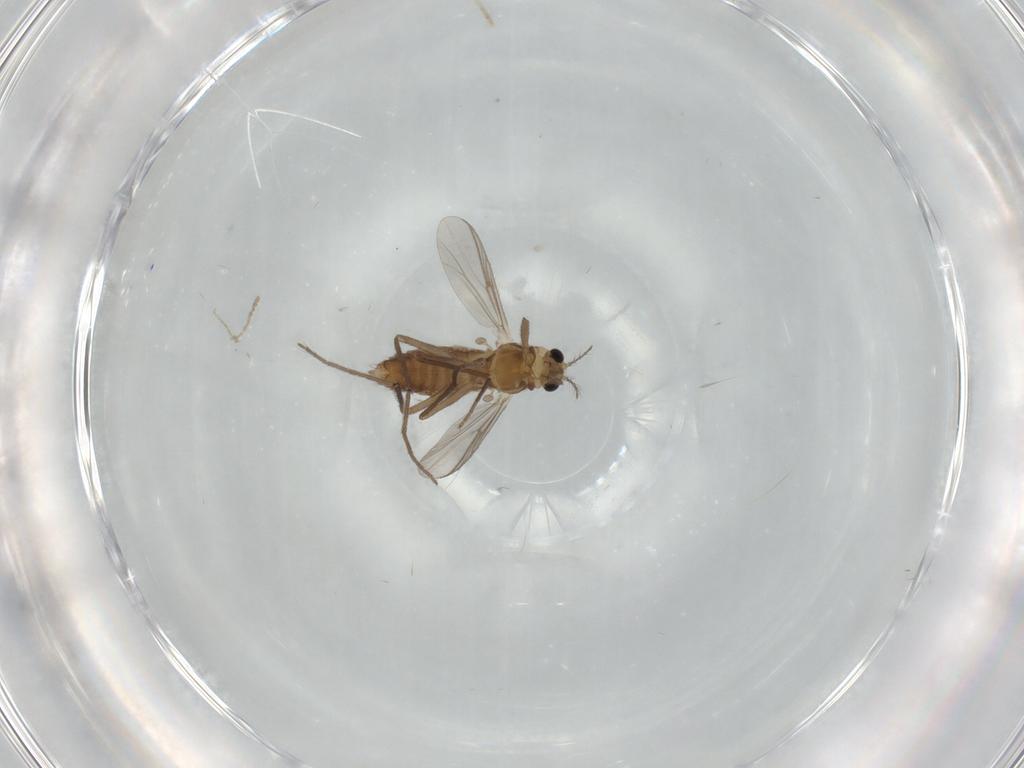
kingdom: Animalia
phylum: Arthropoda
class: Insecta
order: Diptera
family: Chironomidae
